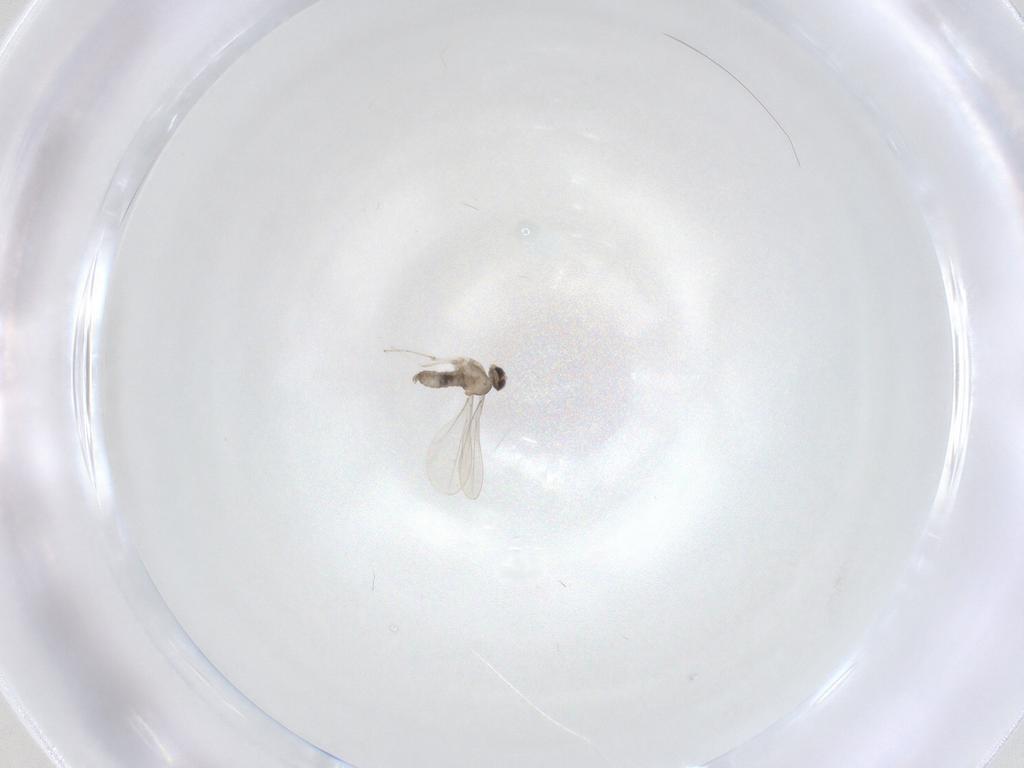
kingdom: Animalia
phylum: Arthropoda
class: Insecta
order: Diptera
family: Cecidomyiidae
